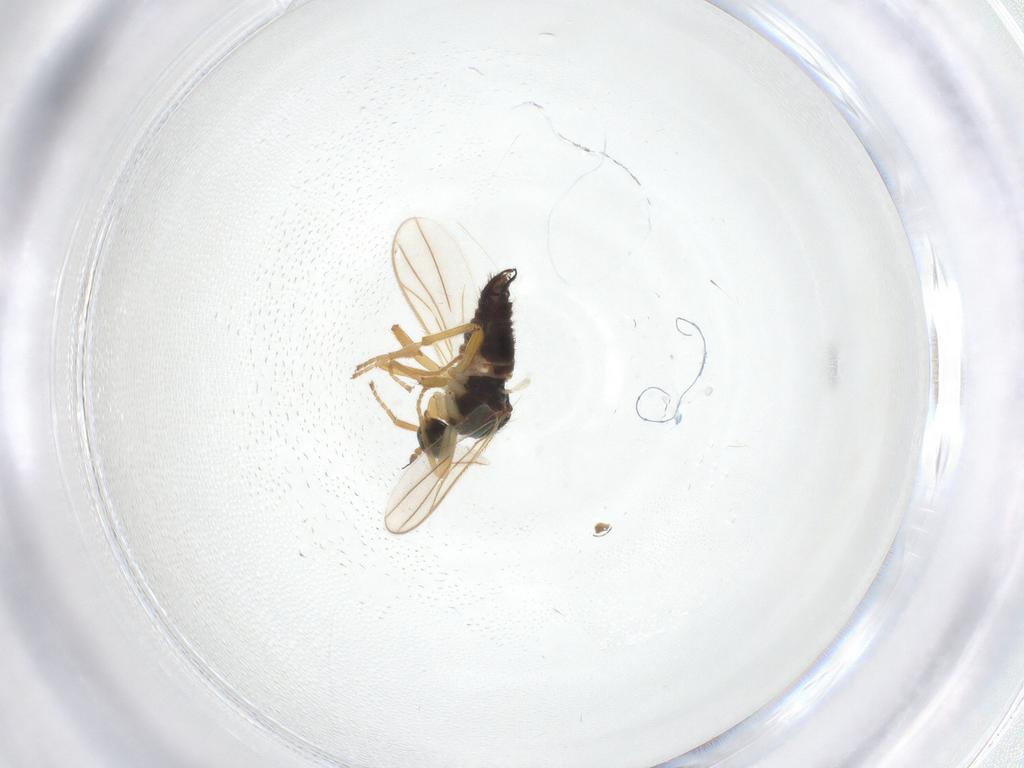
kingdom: Animalia
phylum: Arthropoda
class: Insecta
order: Diptera
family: Hybotidae
